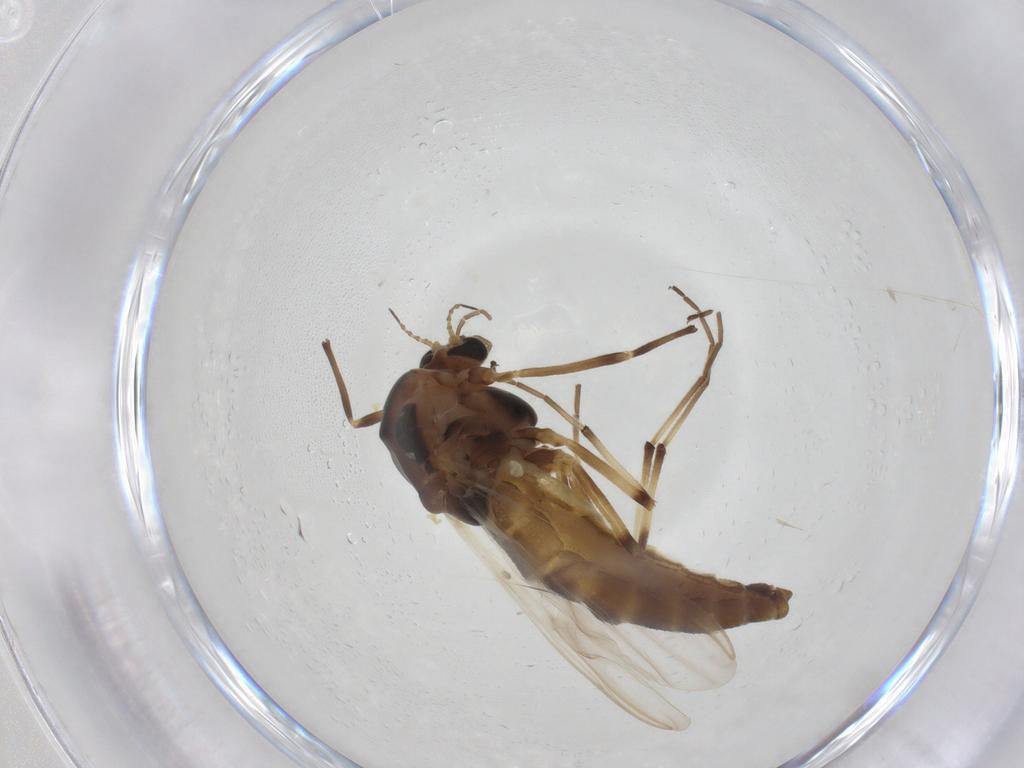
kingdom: Animalia
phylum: Arthropoda
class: Insecta
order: Diptera
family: Chironomidae
